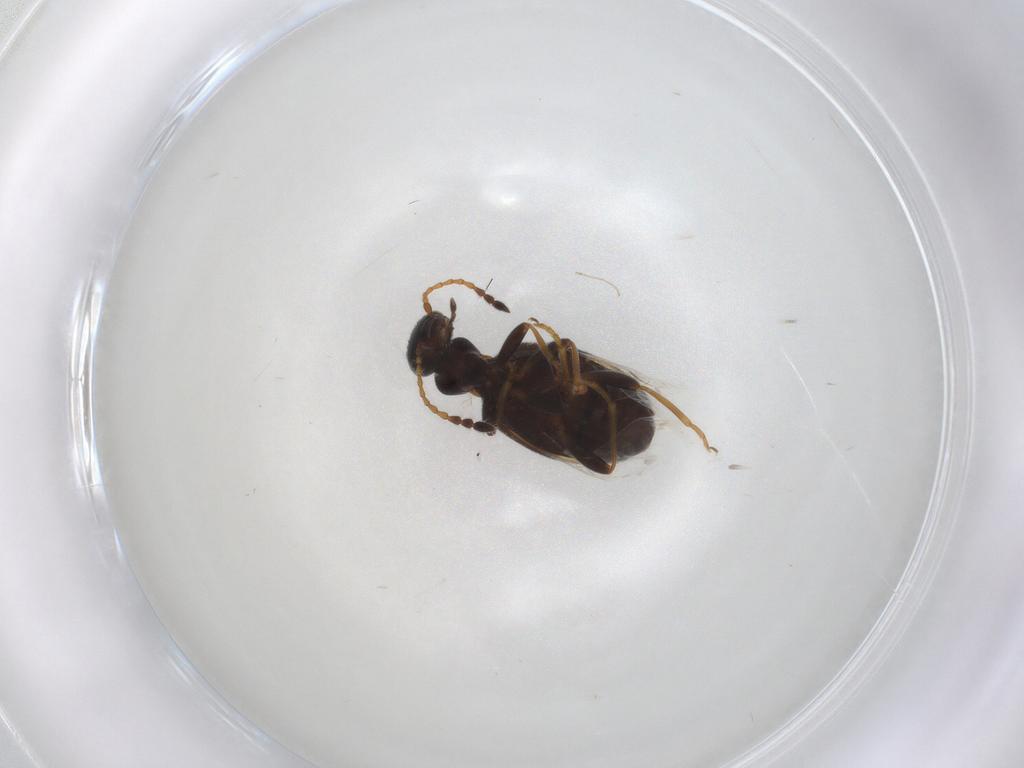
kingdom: Animalia
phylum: Arthropoda
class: Insecta
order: Coleoptera
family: Anthicidae
